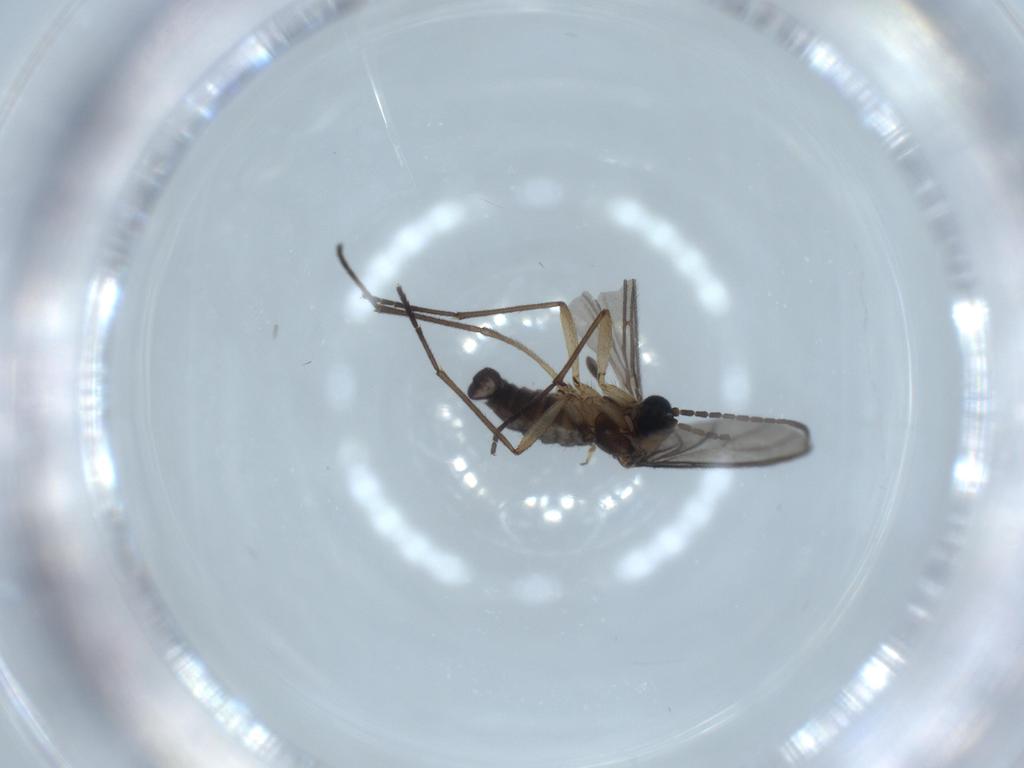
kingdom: Animalia
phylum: Arthropoda
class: Insecta
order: Diptera
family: Sciaridae
